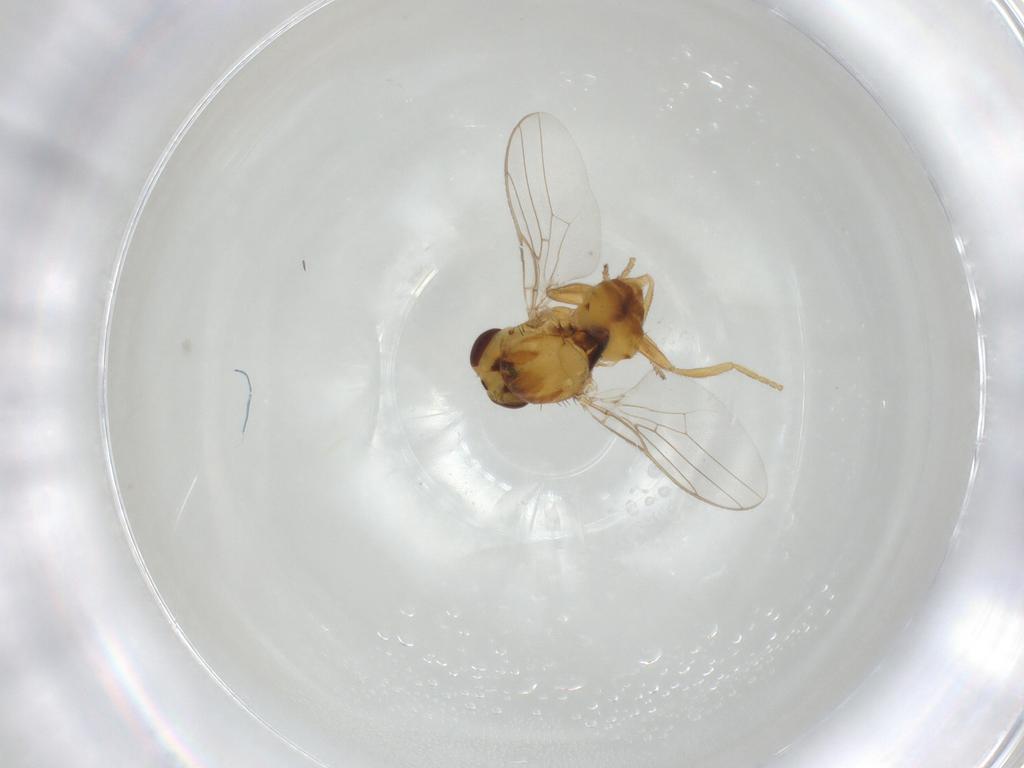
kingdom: Animalia
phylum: Arthropoda
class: Insecta
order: Diptera
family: Chloropidae
